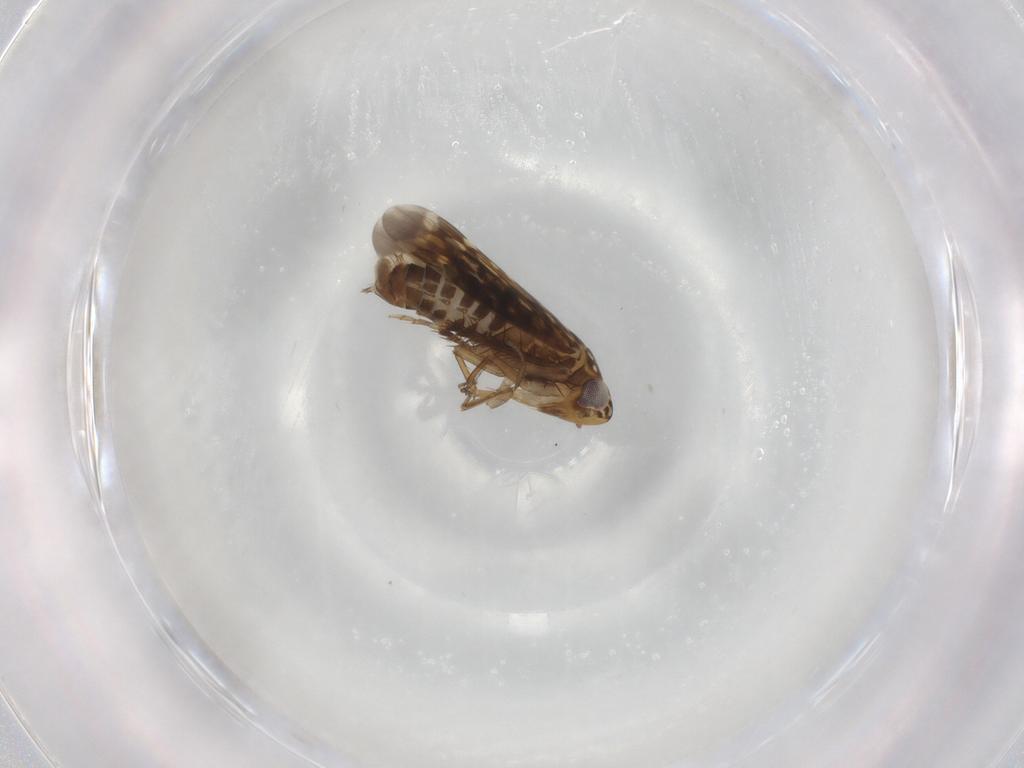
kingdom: Animalia
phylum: Arthropoda
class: Insecta
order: Hemiptera
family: Cicadellidae
